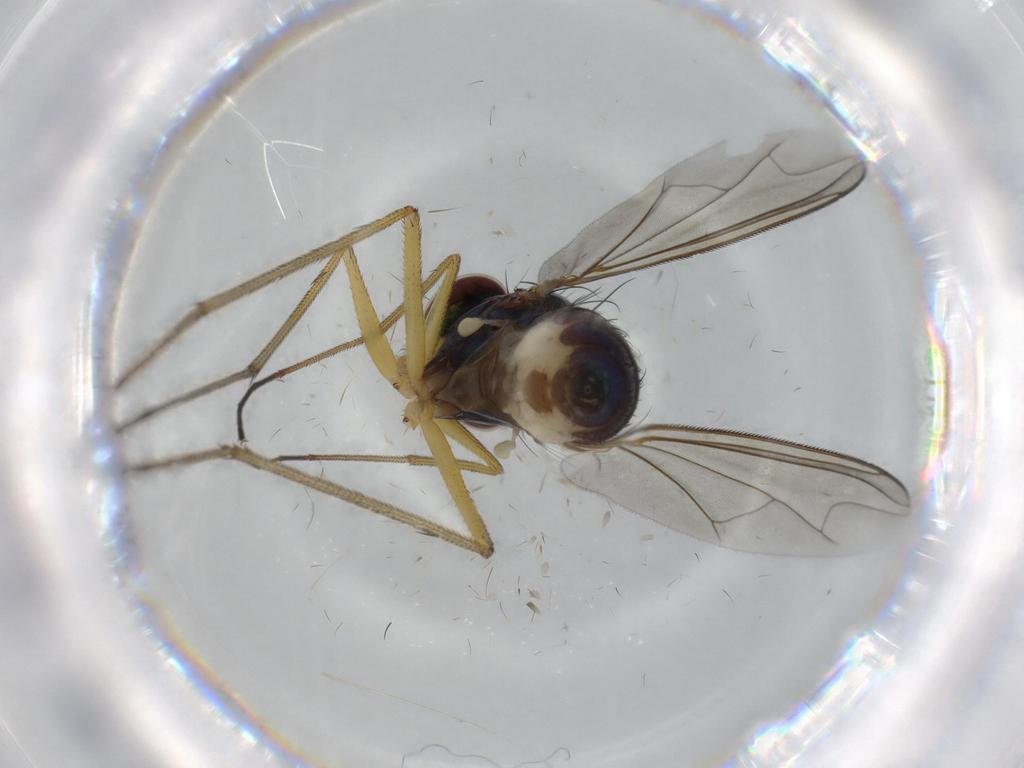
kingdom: Animalia
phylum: Arthropoda
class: Insecta
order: Diptera
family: Dolichopodidae
